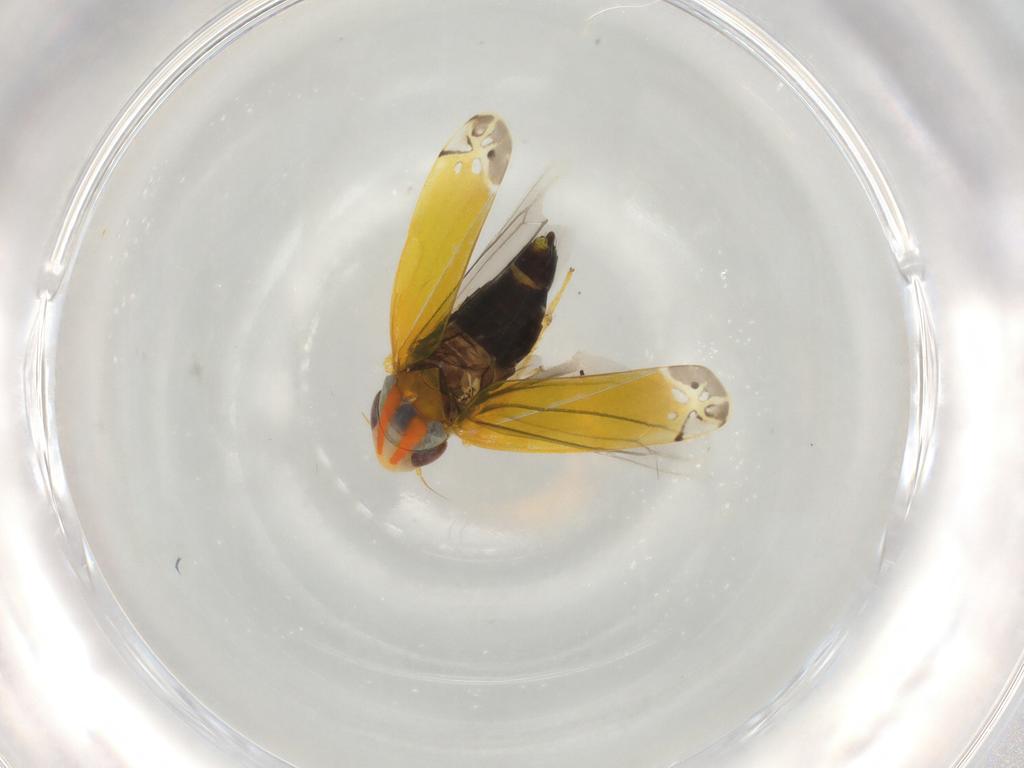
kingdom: Animalia
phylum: Arthropoda
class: Insecta
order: Hemiptera
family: Cicadellidae
